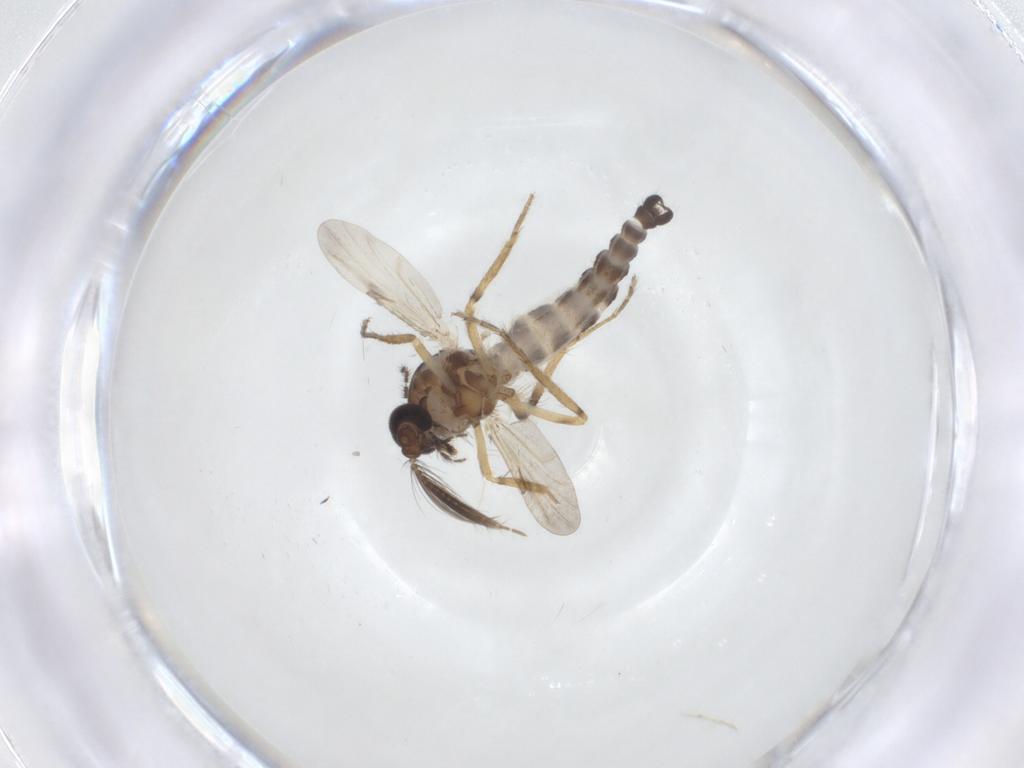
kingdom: Animalia
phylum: Arthropoda
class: Insecta
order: Diptera
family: Ceratopogonidae
